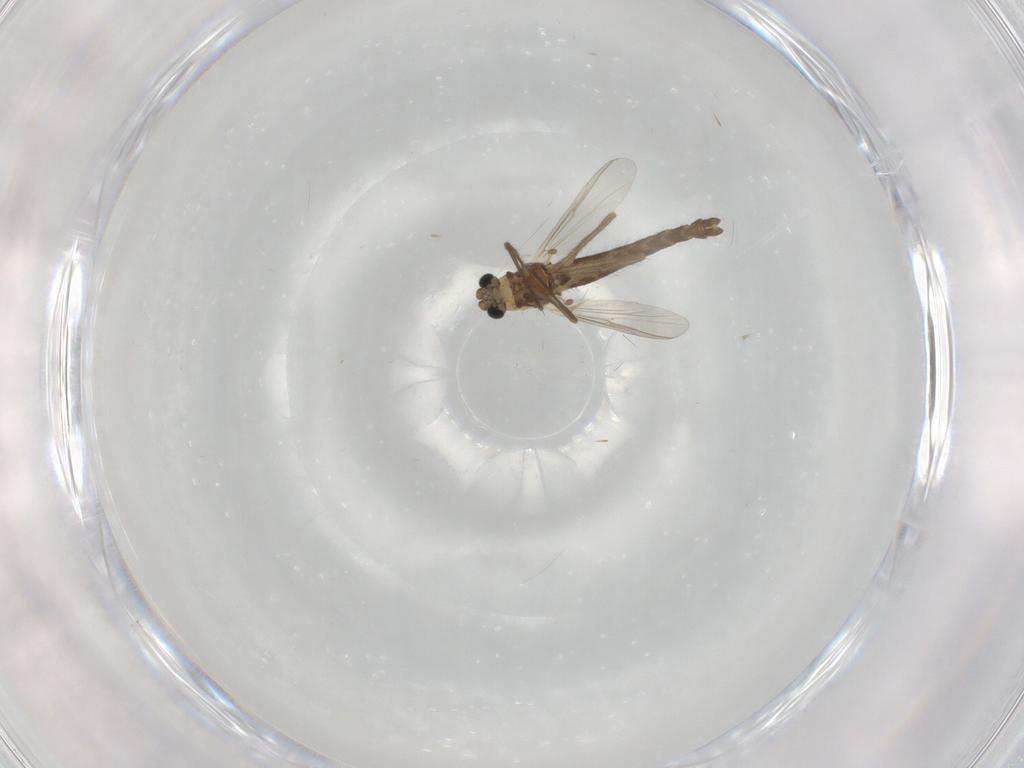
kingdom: Animalia
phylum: Arthropoda
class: Insecta
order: Diptera
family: Chironomidae
